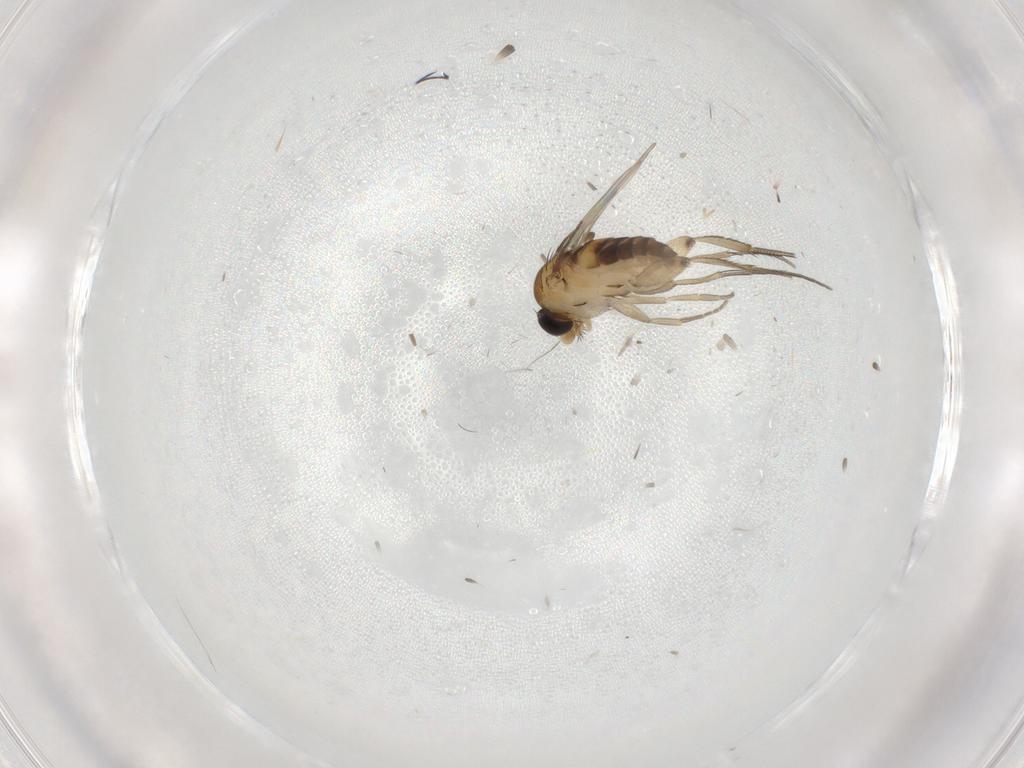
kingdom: Animalia
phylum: Arthropoda
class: Insecta
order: Diptera
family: Phoridae
